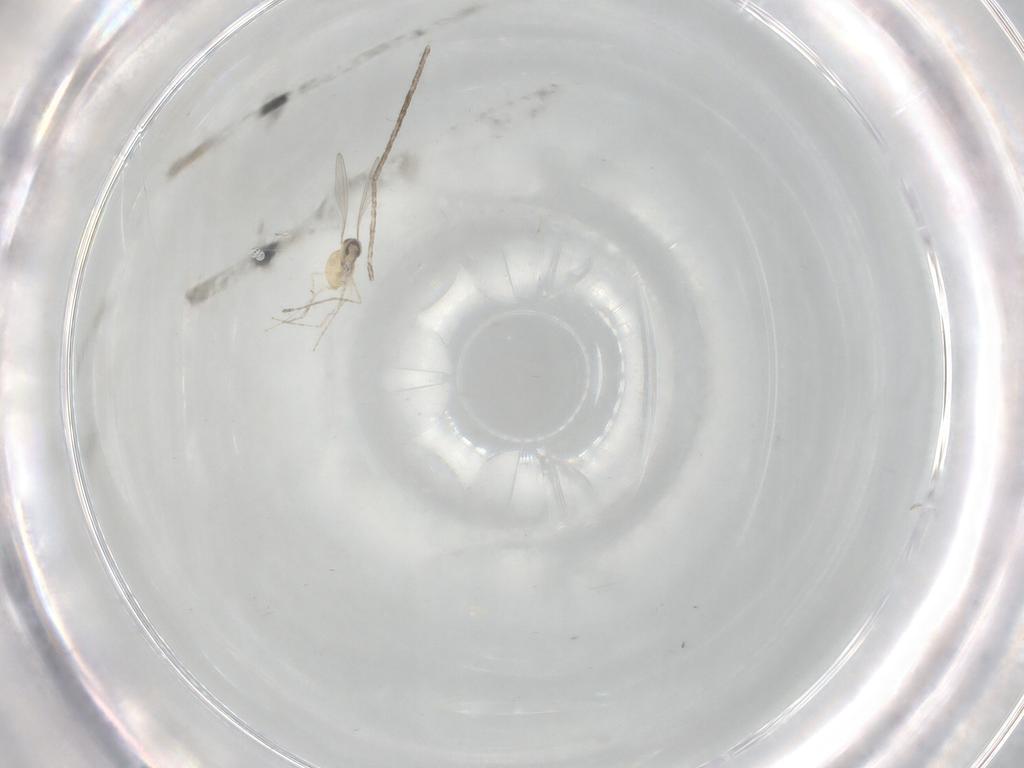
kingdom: Animalia
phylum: Arthropoda
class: Insecta
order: Diptera
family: Cecidomyiidae
